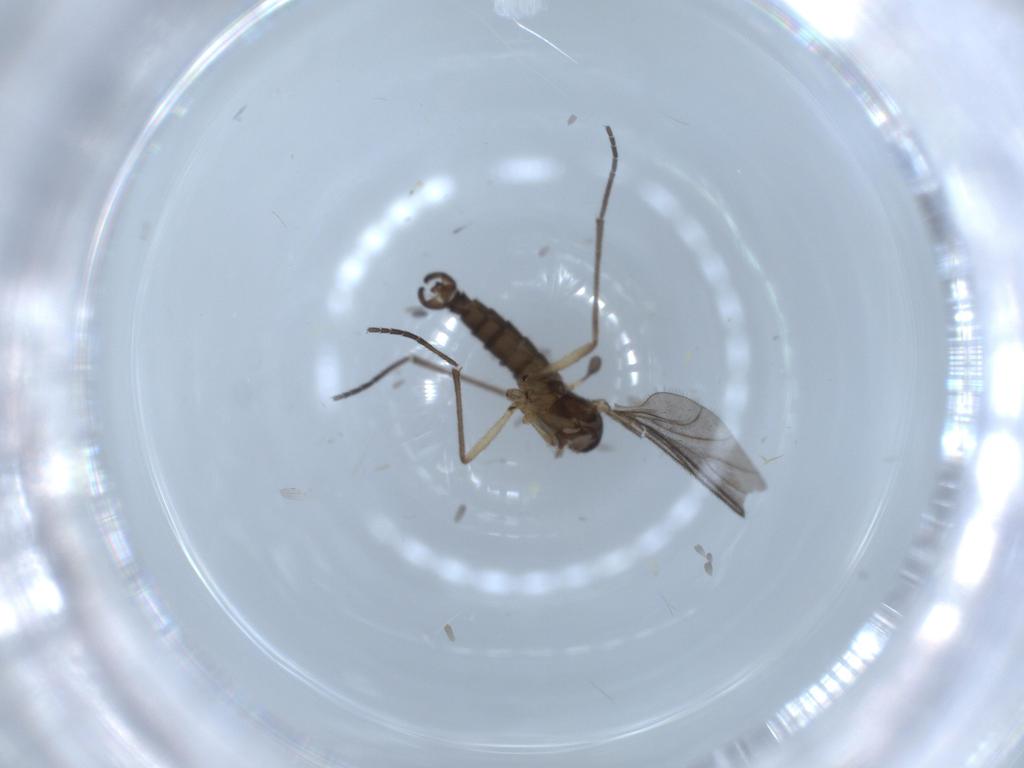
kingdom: Animalia
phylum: Arthropoda
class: Insecta
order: Diptera
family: Sciaridae
